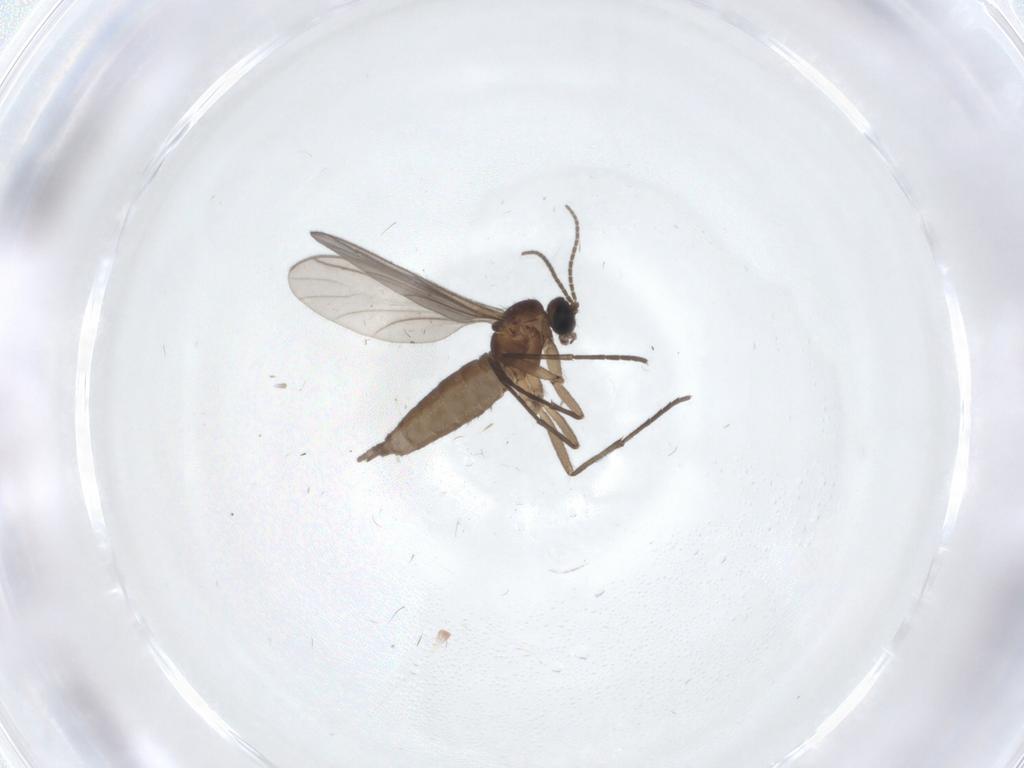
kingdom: Animalia
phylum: Arthropoda
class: Insecta
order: Diptera
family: Sciaridae
